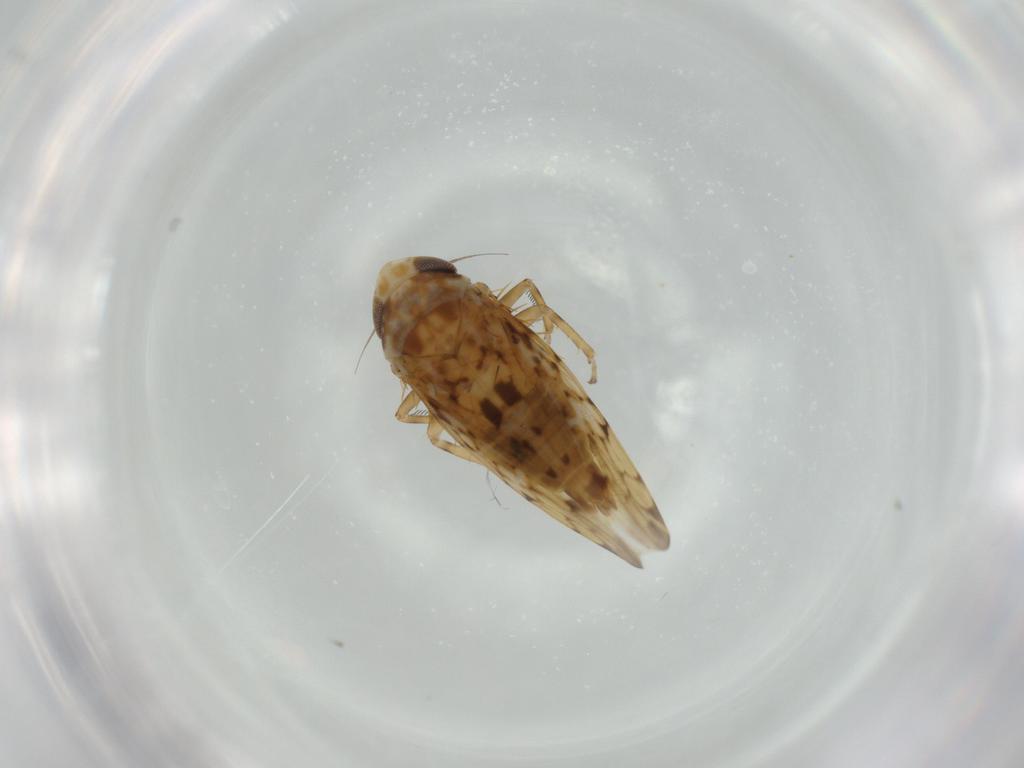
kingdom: Animalia
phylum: Arthropoda
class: Insecta
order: Hemiptera
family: Cicadellidae
